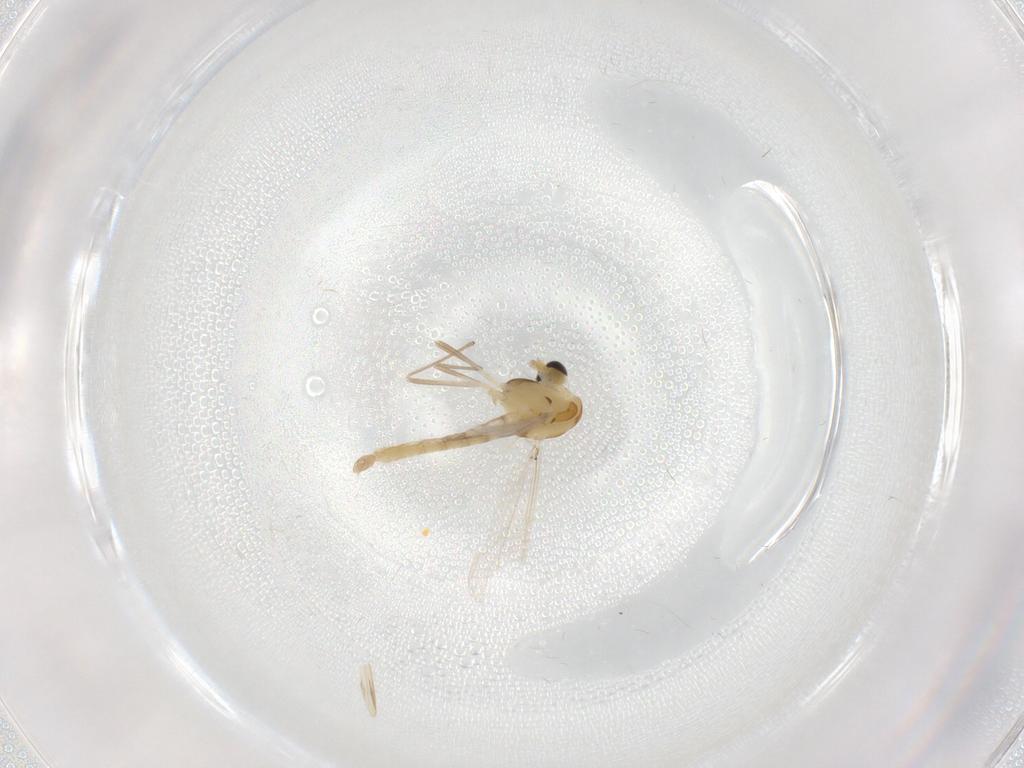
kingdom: Animalia
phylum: Arthropoda
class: Insecta
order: Diptera
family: Chironomidae
